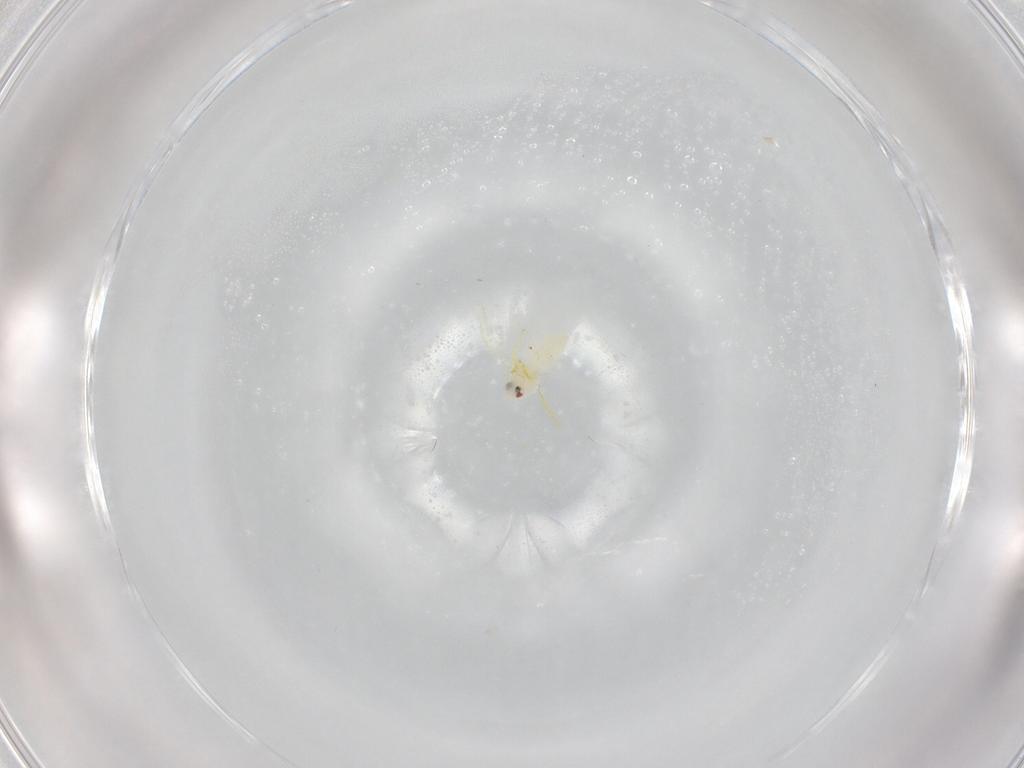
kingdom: Animalia
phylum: Arthropoda
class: Insecta
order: Hemiptera
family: Aleyrodidae
